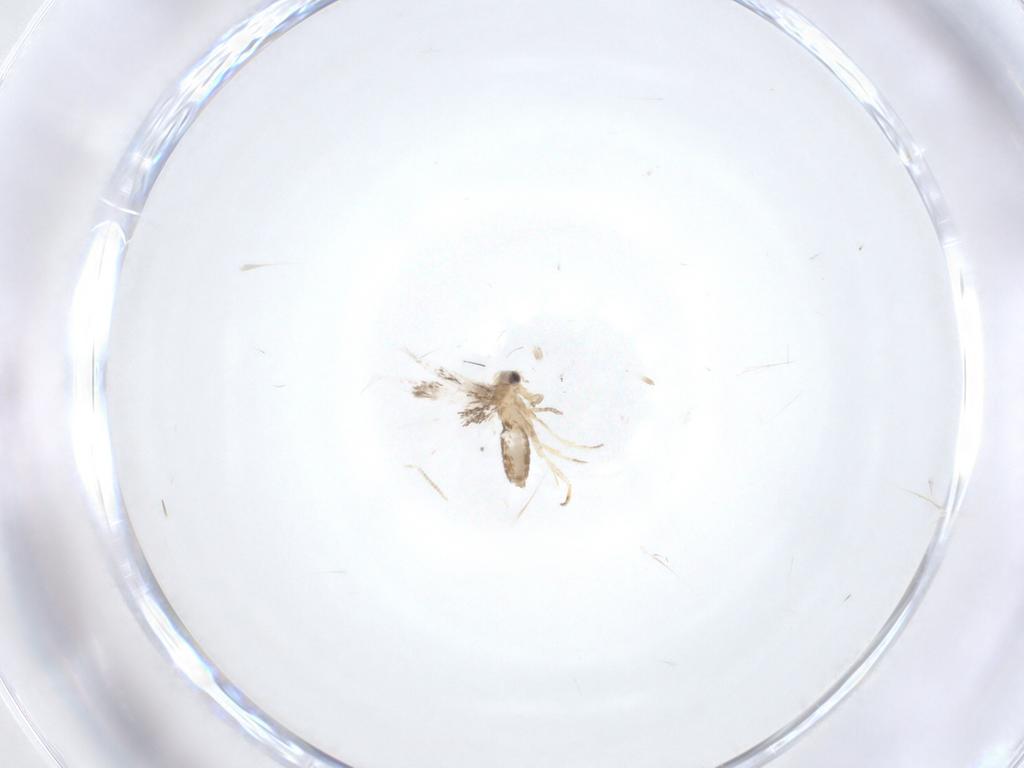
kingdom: Animalia
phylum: Arthropoda
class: Insecta
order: Lepidoptera
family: Nepticulidae
